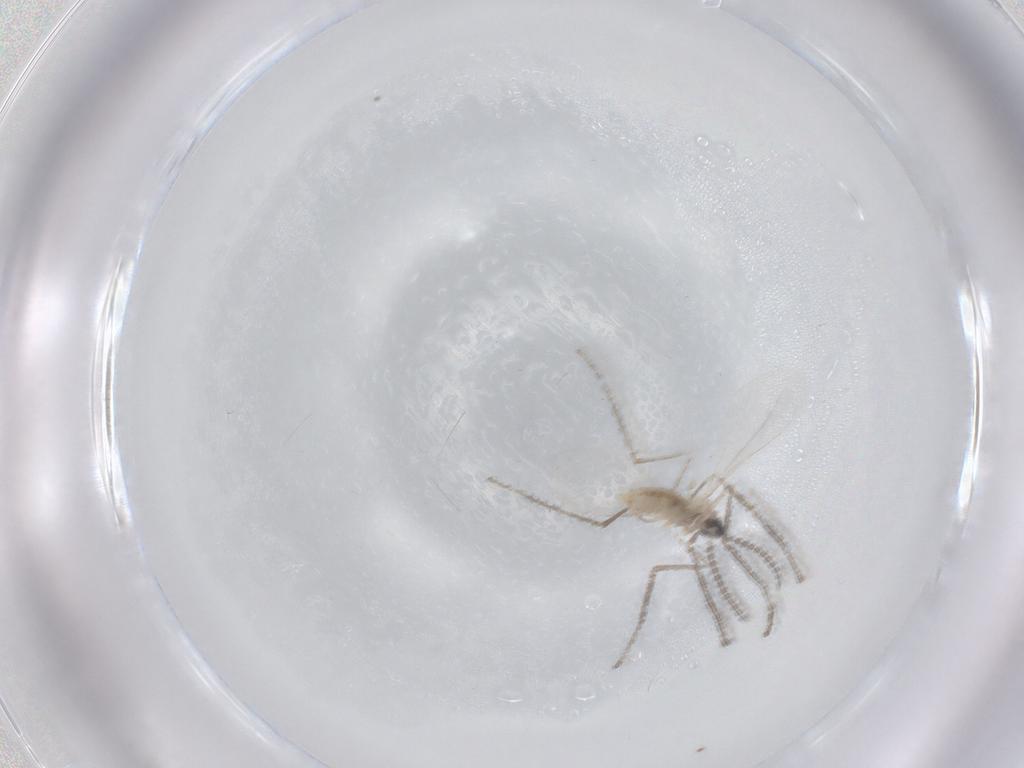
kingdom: Animalia
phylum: Arthropoda
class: Insecta
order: Diptera
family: Cecidomyiidae
